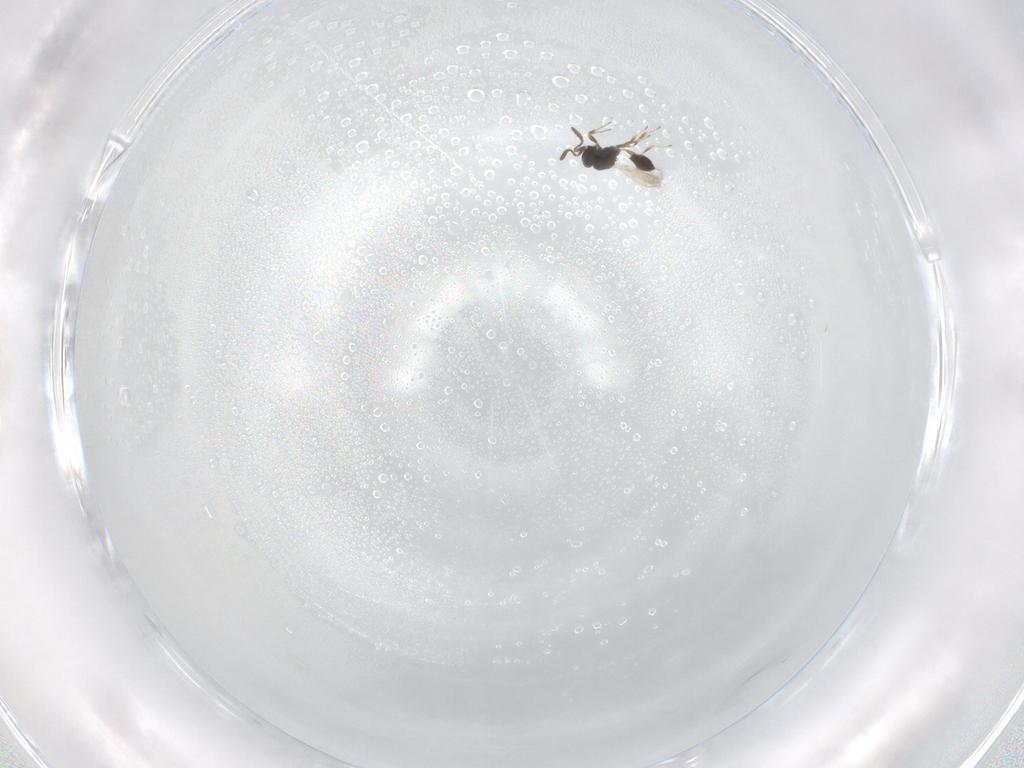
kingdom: Animalia
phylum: Arthropoda
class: Insecta
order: Hymenoptera
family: Scelionidae
